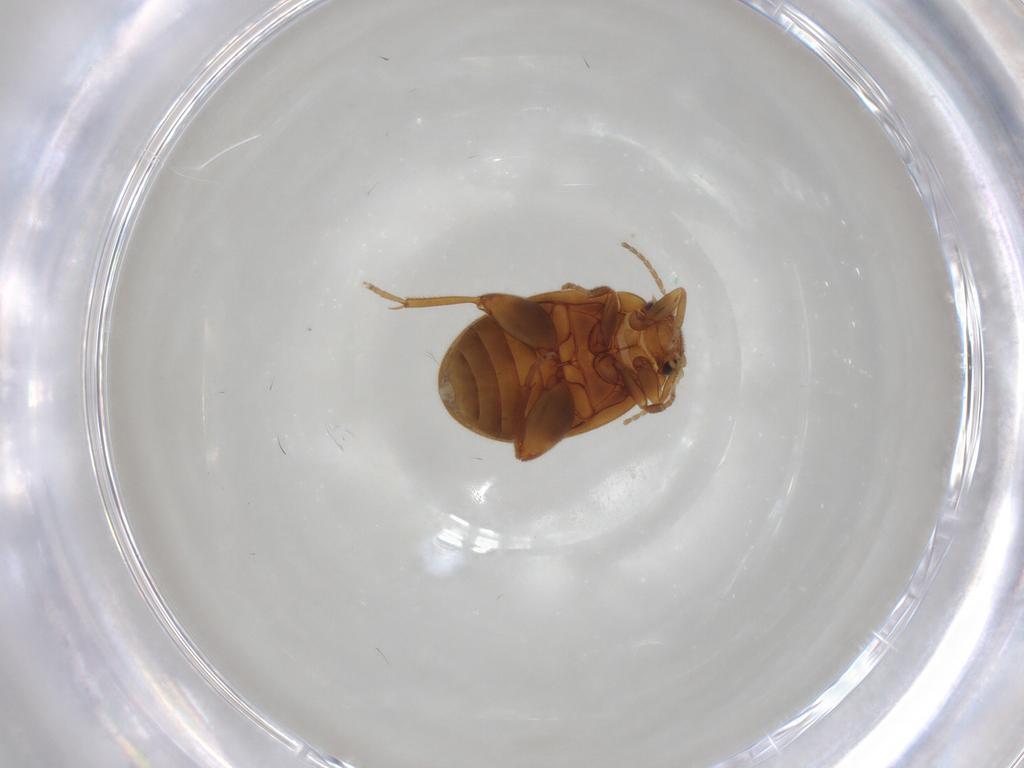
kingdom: Animalia
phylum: Arthropoda
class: Insecta
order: Coleoptera
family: Scirtidae
